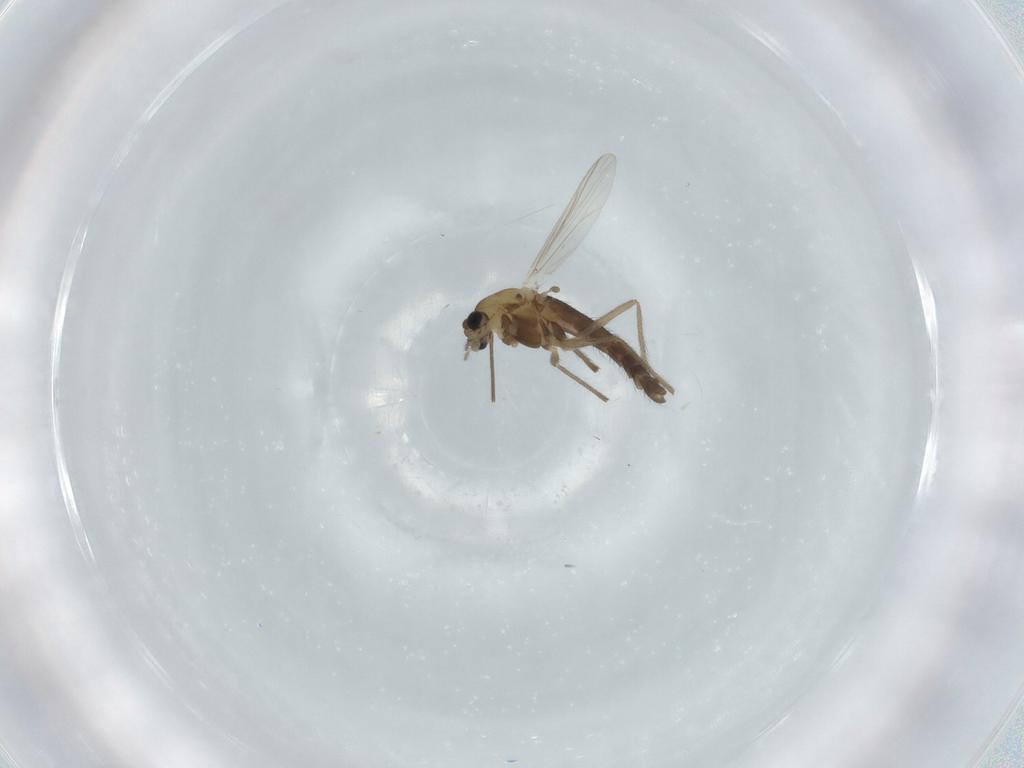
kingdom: Animalia
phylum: Arthropoda
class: Insecta
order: Diptera
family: Chironomidae
